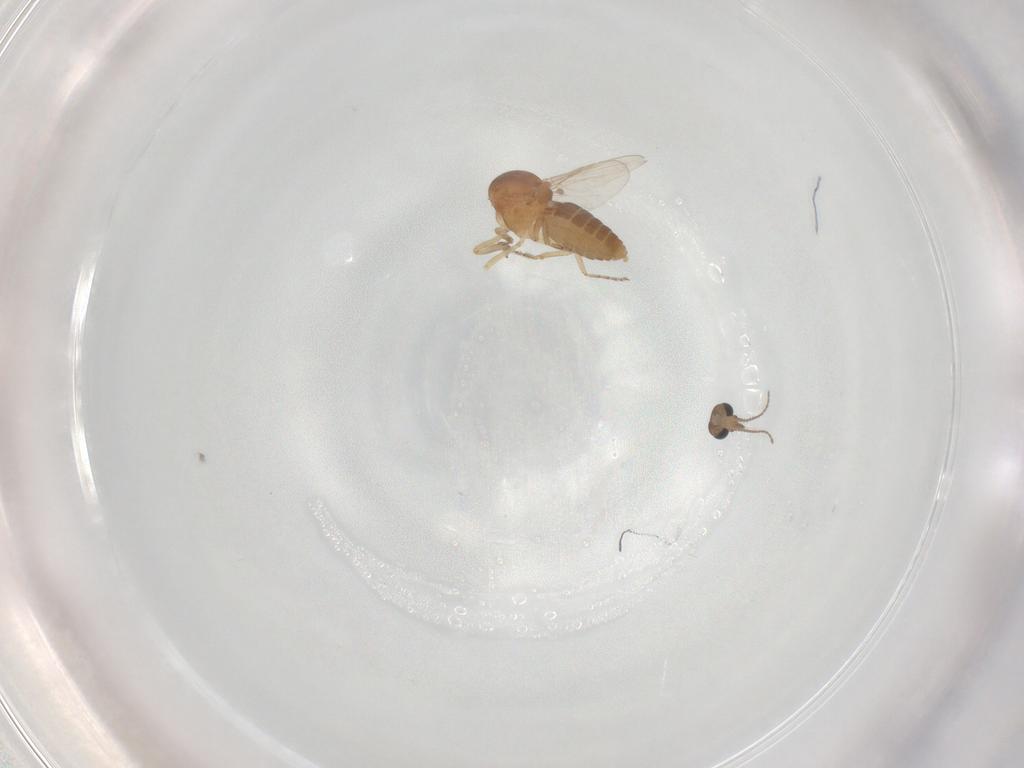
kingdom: Animalia
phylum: Arthropoda
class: Insecta
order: Diptera
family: Ceratopogonidae
